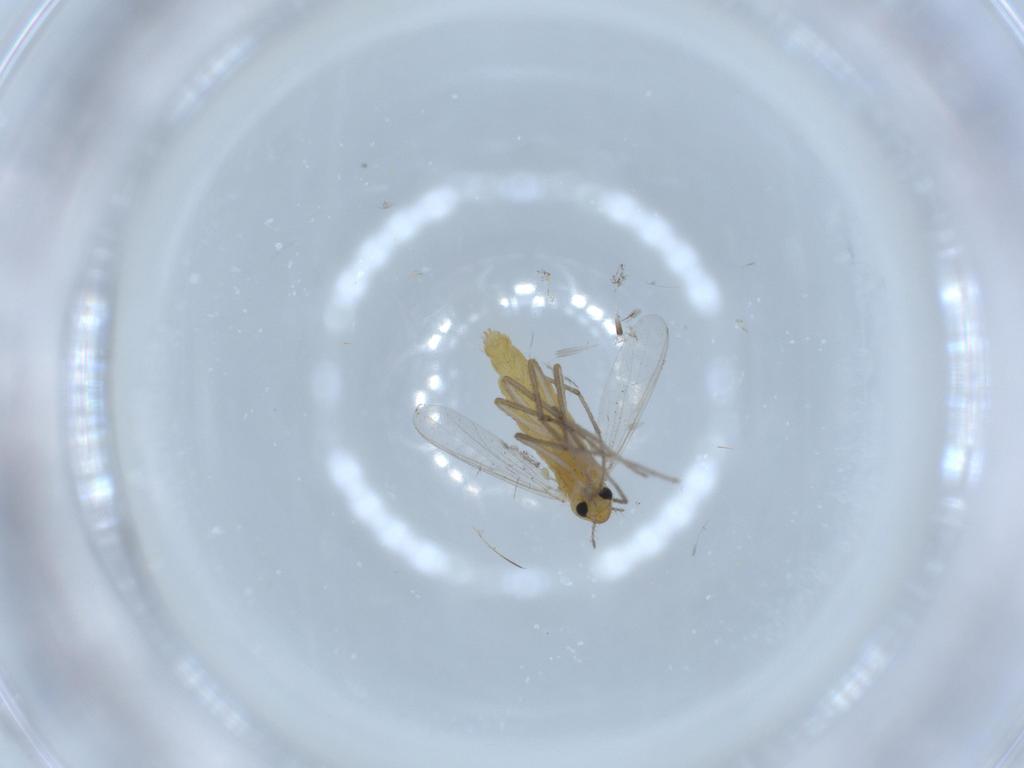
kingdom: Animalia
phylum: Arthropoda
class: Insecta
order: Diptera
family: Chironomidae
